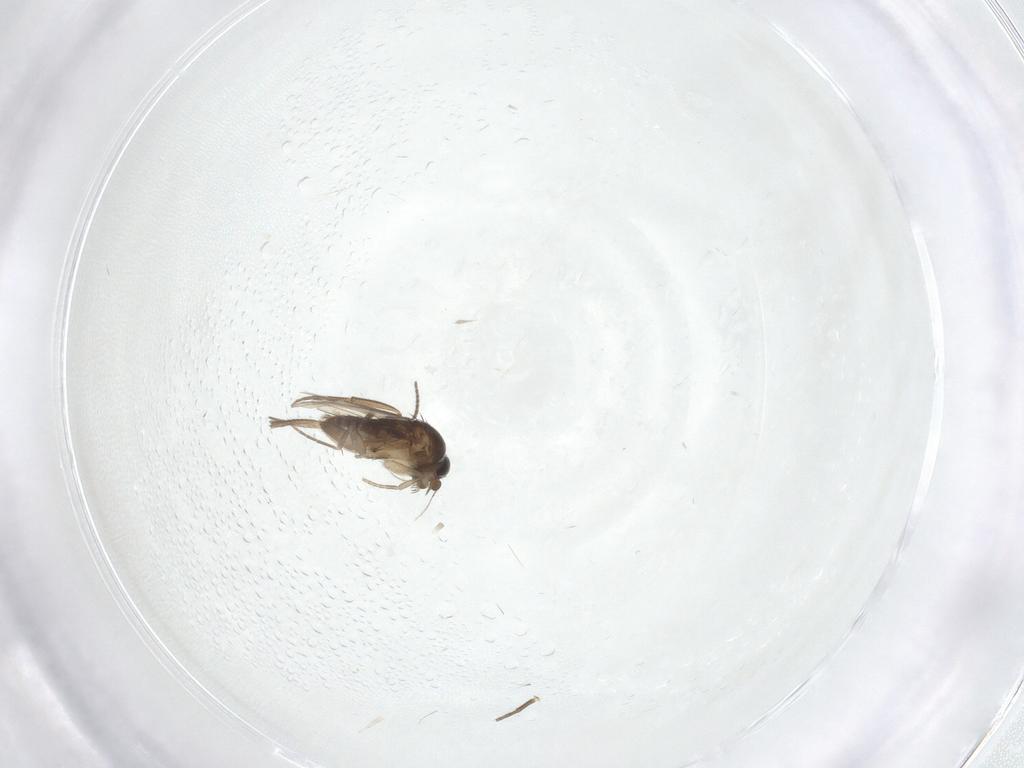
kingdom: Animalia
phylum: Arthropoda
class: Insecta
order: Diptera
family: Phoridae
